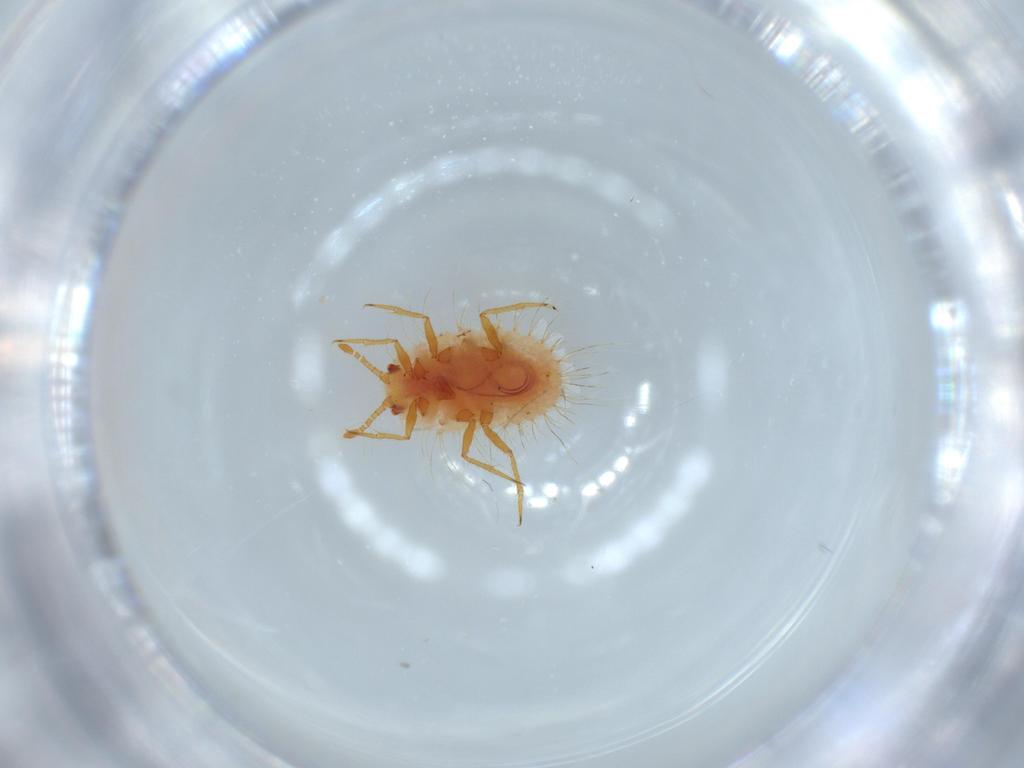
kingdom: Animalia
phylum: Arthropoda
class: Insecta
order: Hemiptera
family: Coccoidea_incertae_sedis
